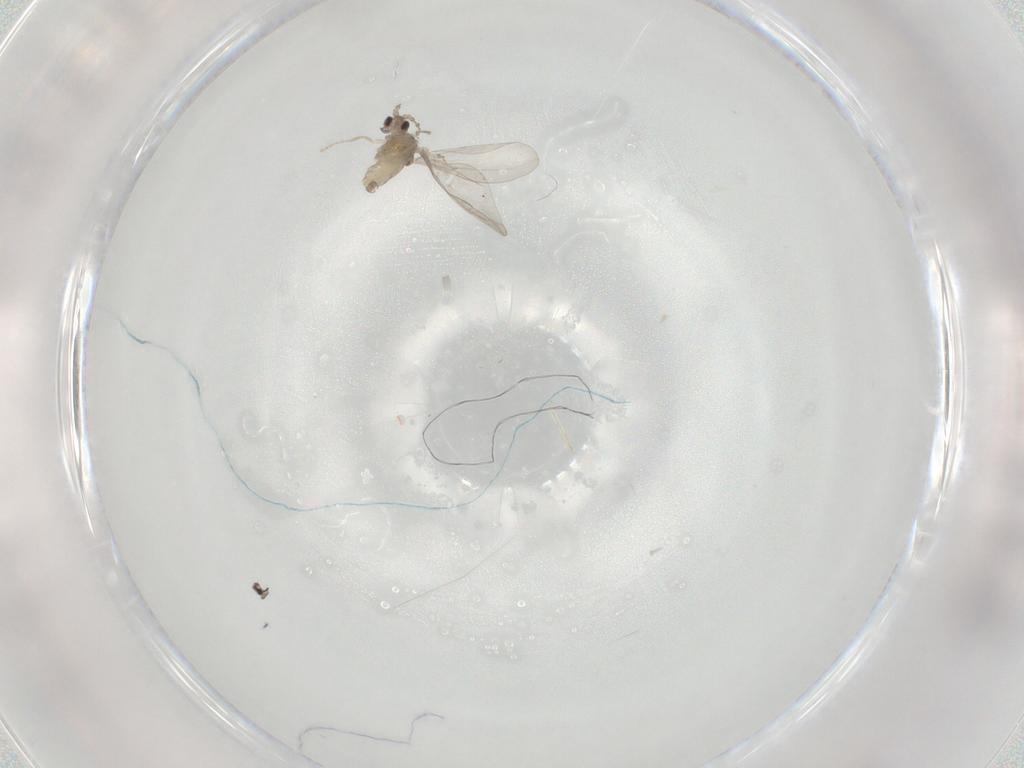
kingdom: Animalia
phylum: Arthropoda
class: Insecta
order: Diptera
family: Cecidomyiidae
